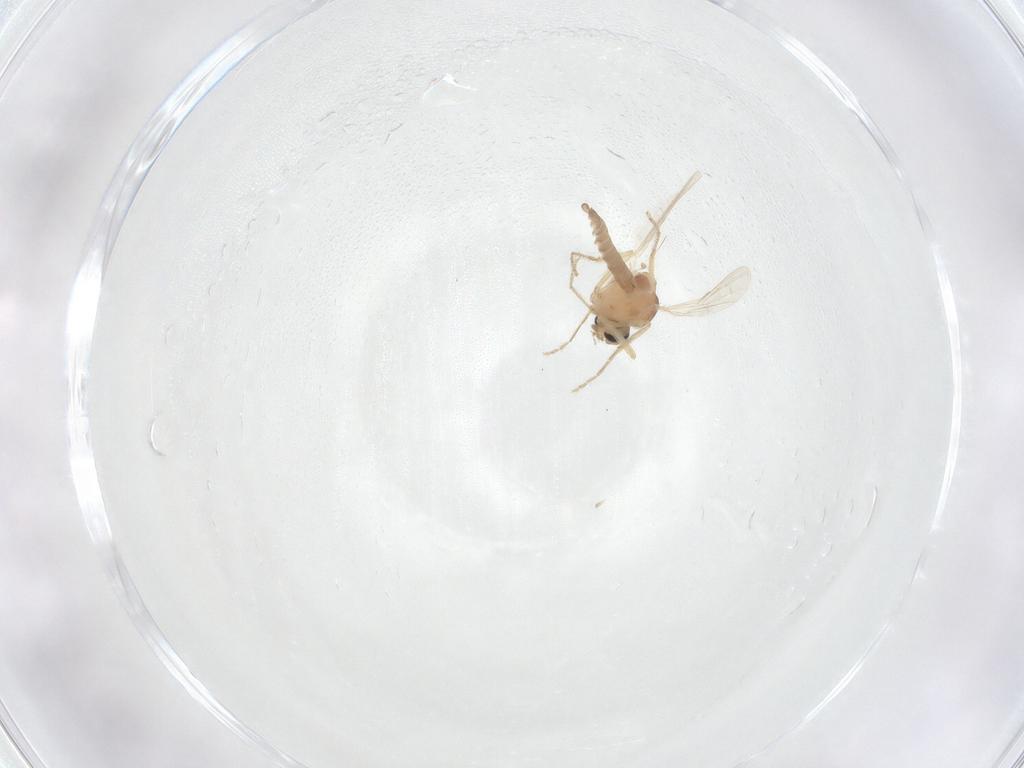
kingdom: Animalia
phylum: Arthropoda
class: Insecta
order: Diptera
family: Ceratopogonidae
